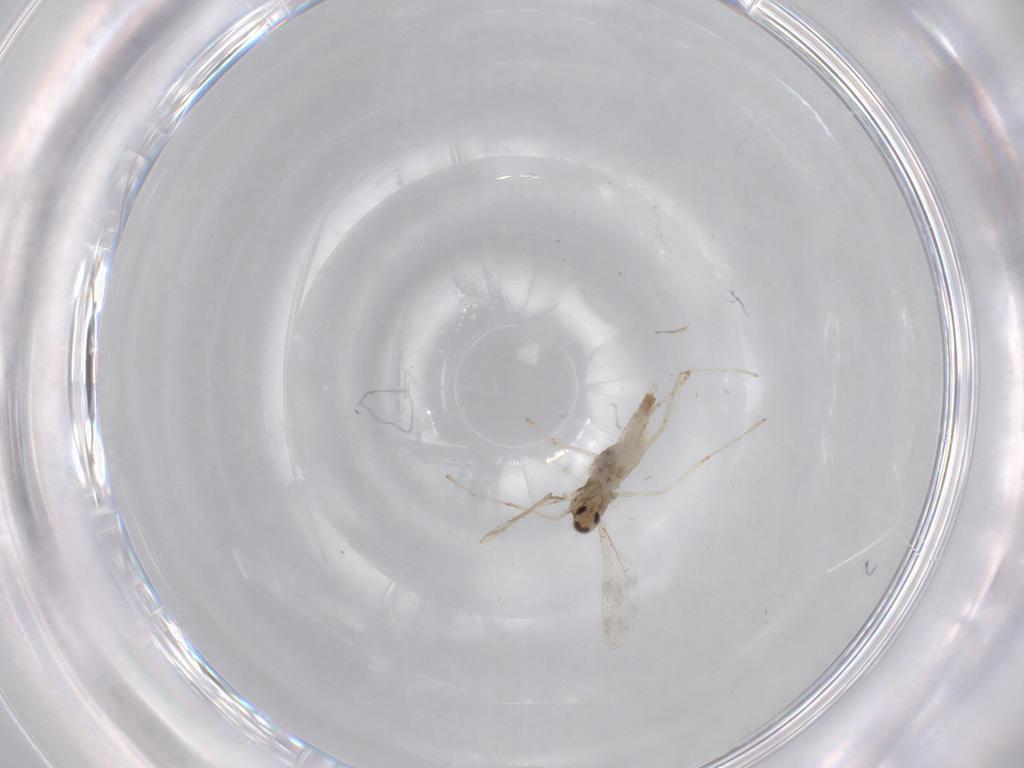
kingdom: Animalia
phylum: Arthropoda
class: Insecta
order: Diptera
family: Cecidomyiidae
